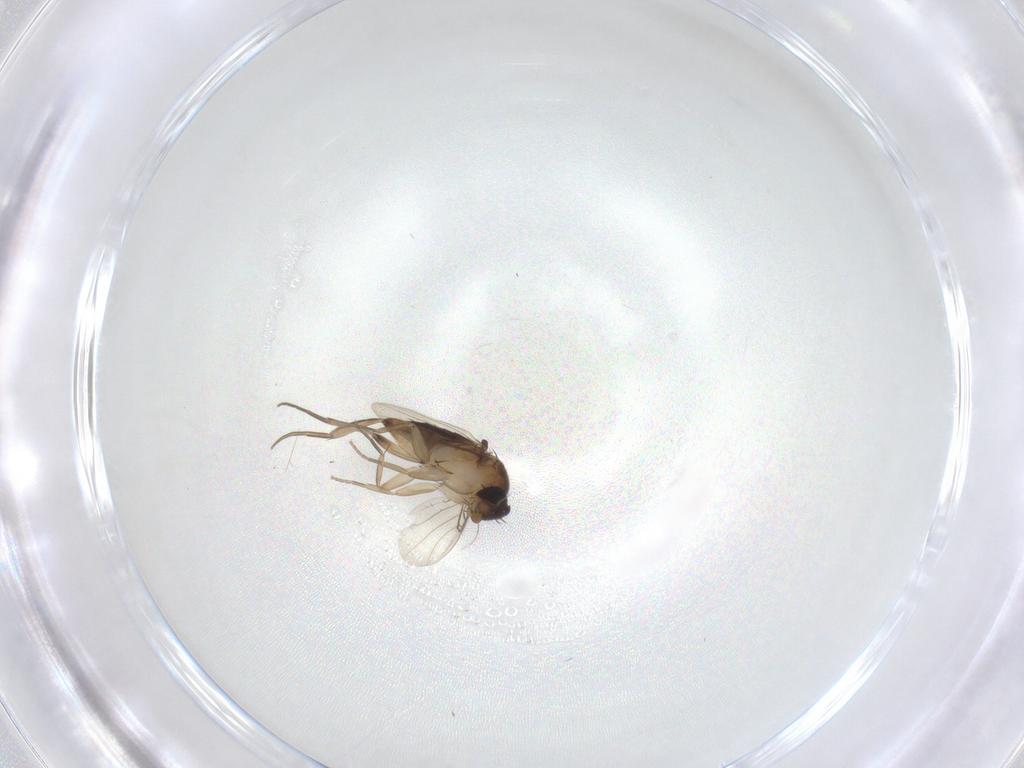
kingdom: Animalia
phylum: Arthropoda
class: Insecta
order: Diptera
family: Phoridae
